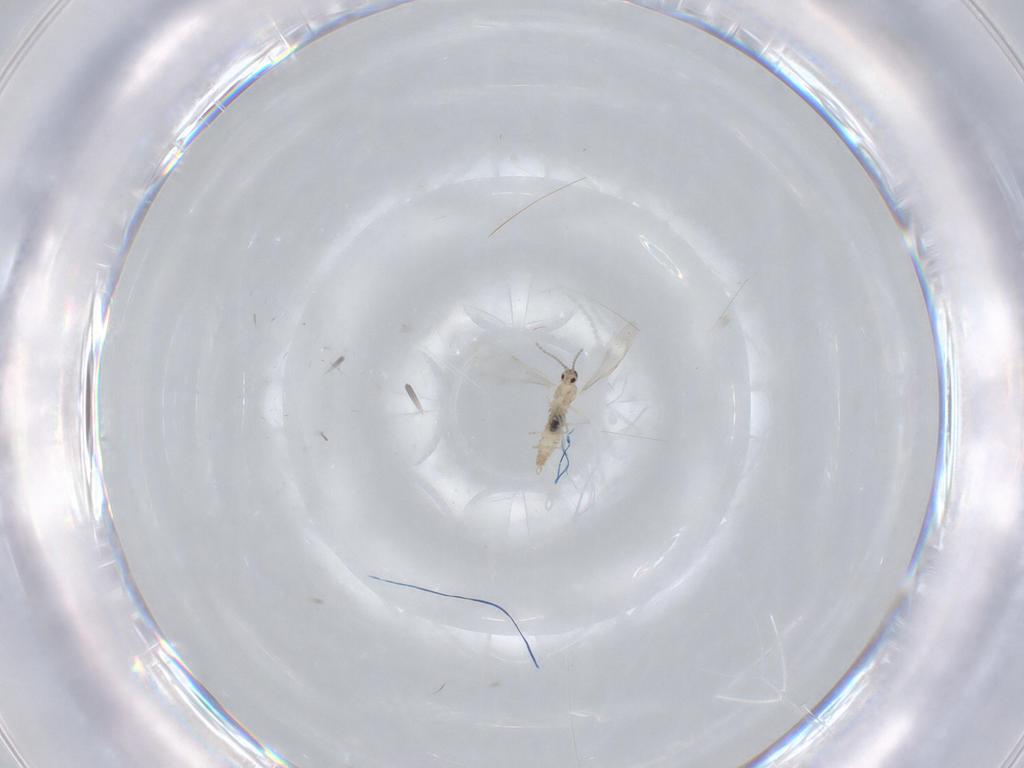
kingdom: Animalia
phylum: Arthropoda
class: Insecta
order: Diptera
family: Cecidomyiidae
